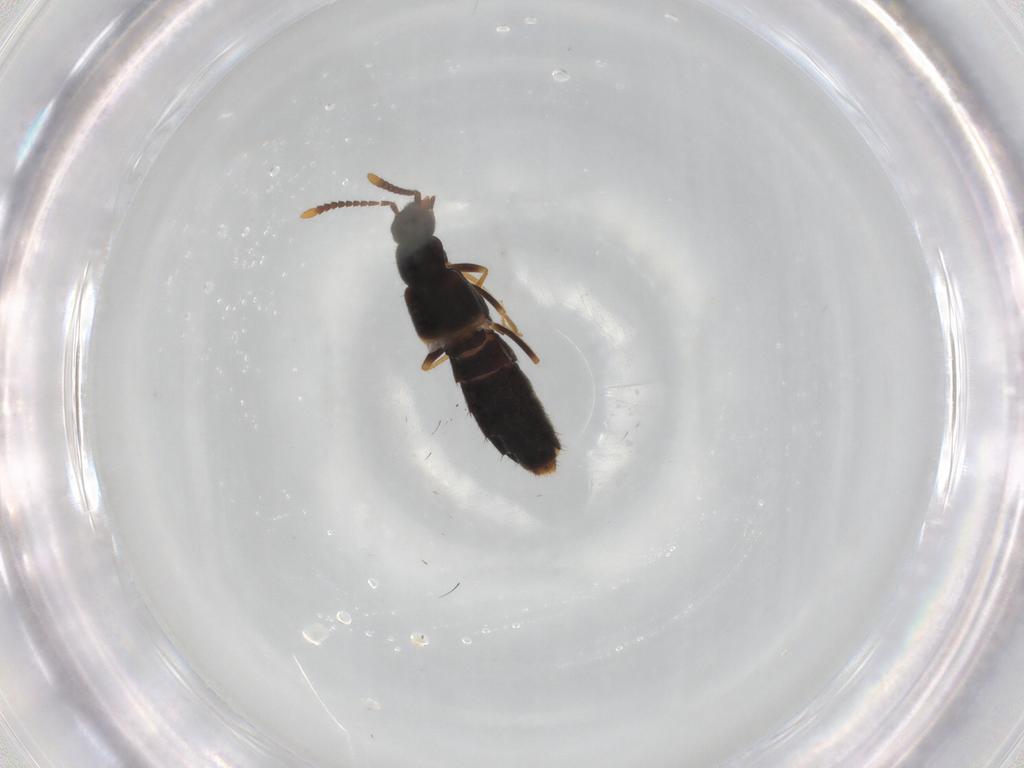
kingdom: Animalia
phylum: Arthropoda
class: Insecta
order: Coleoptera
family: Staphylinidae
